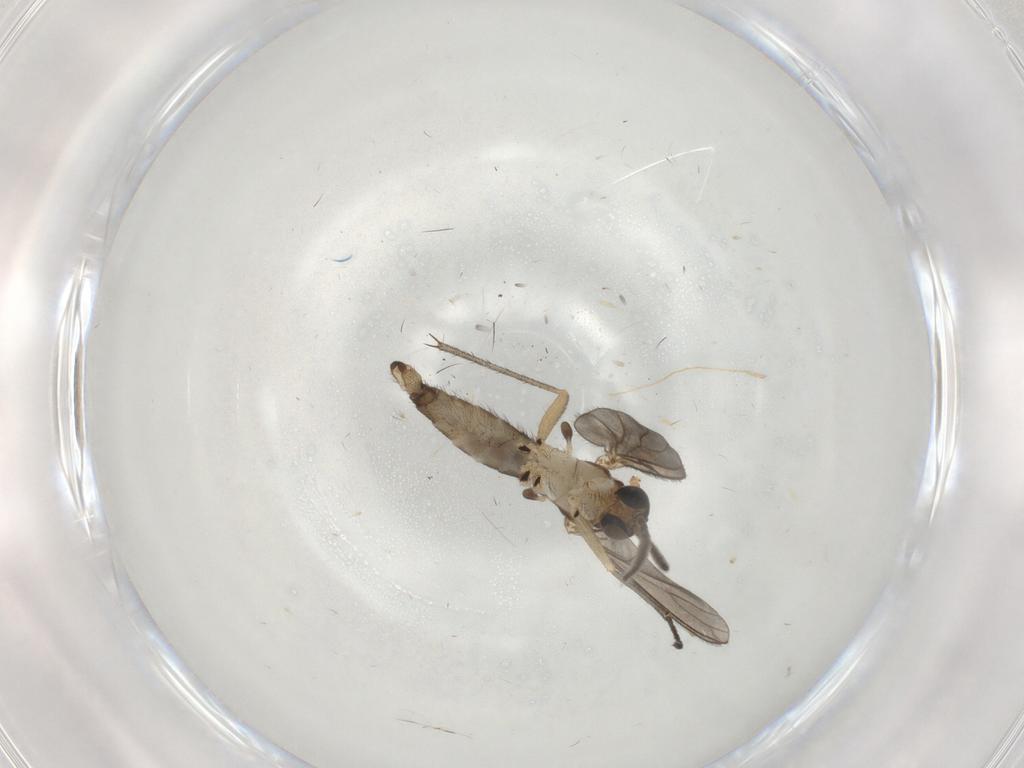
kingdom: Animalia
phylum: Arthropoda
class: Insecta
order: Diptera
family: Sciaridae
